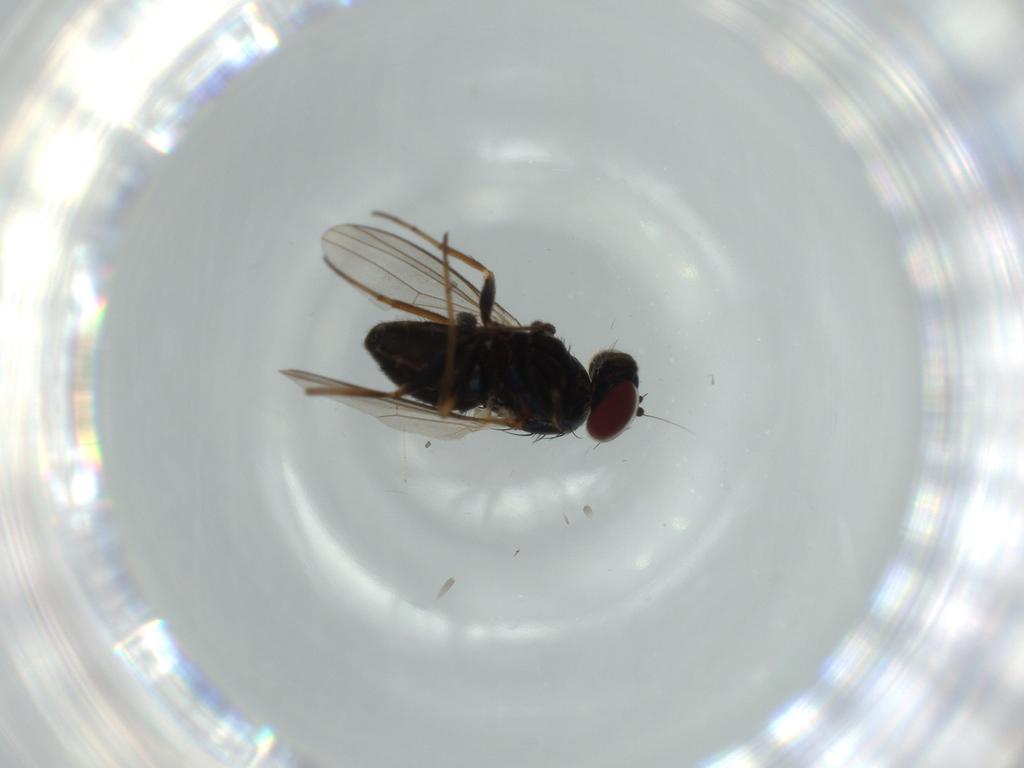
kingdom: Animalia
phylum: Arthropoda
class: Insecta
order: Diptera
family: Dolichopodidae
